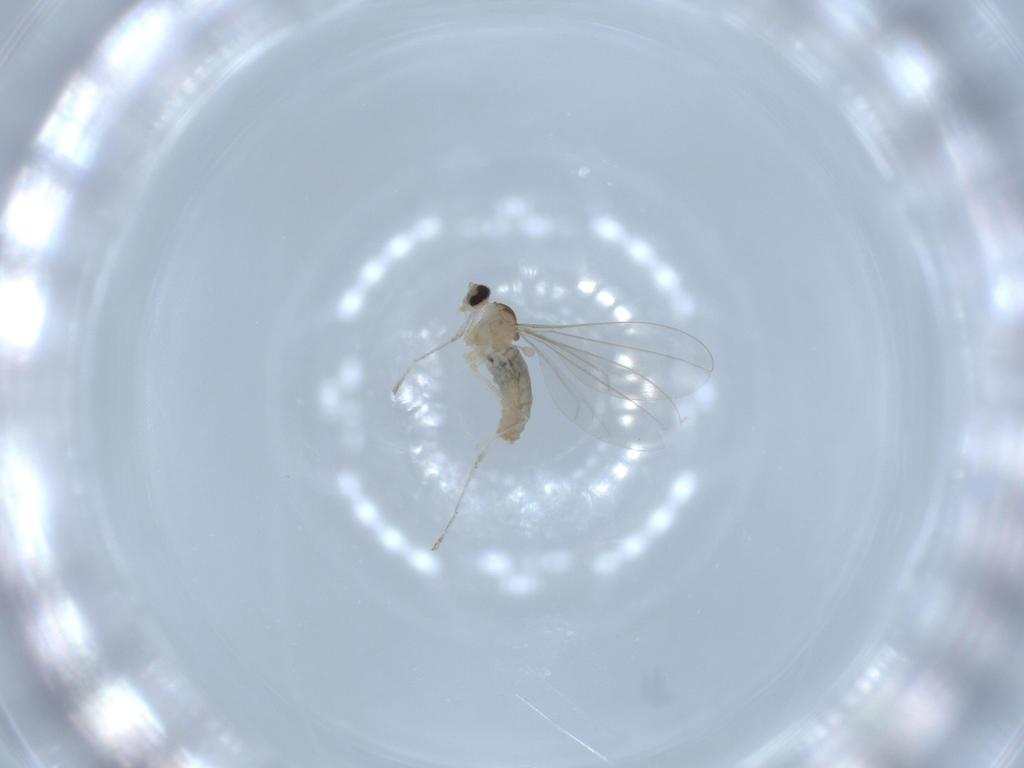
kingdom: Animalia
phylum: Arthropoda
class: Insecta
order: Diptera
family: Cecidomyiidae
